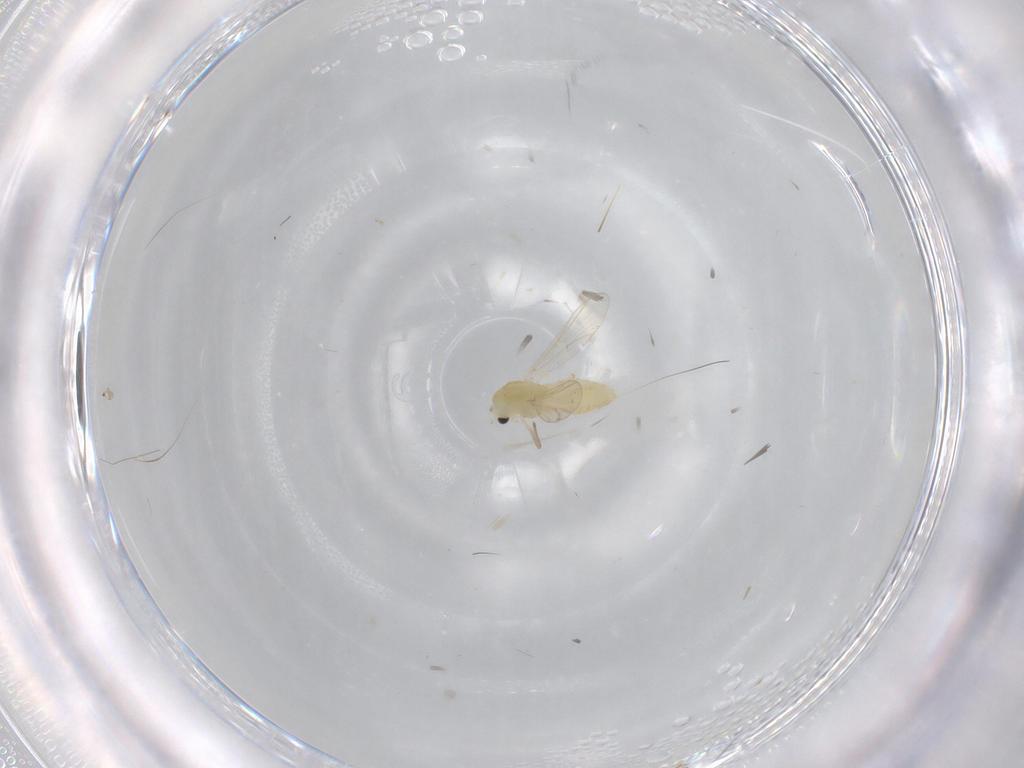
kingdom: Animalia
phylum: Arthropoda
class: Insecta
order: Diptera
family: Chironomidae
